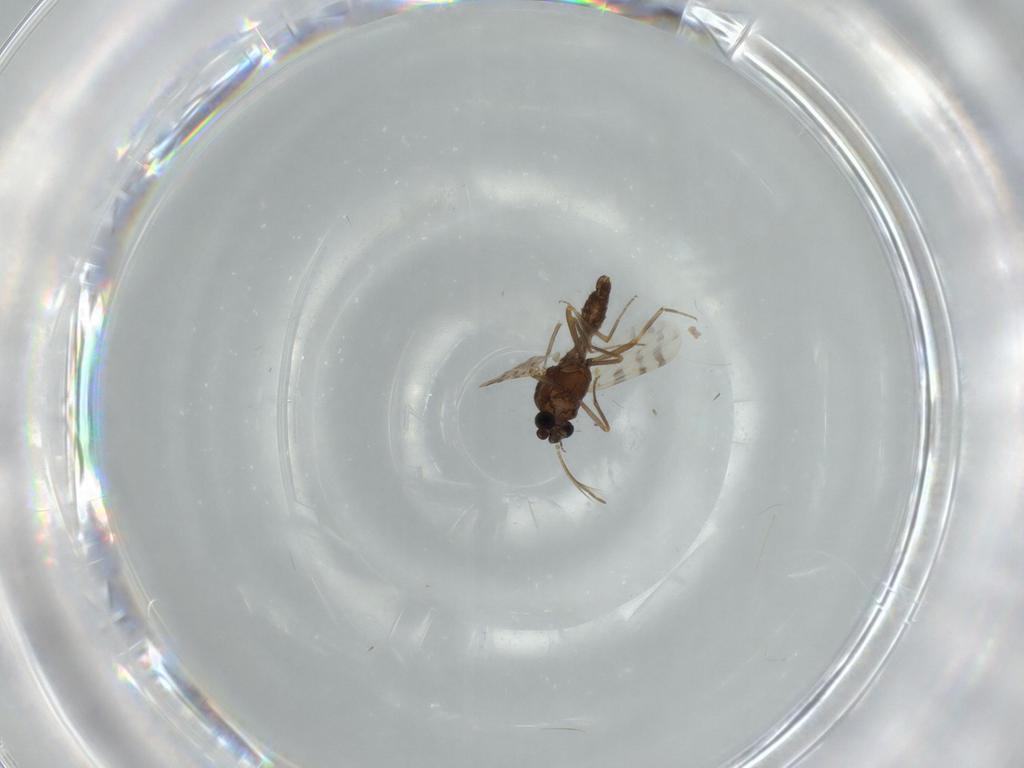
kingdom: Animalia
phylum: Arthropoda
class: Insecta
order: Diptera
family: Ceratopogonidae
